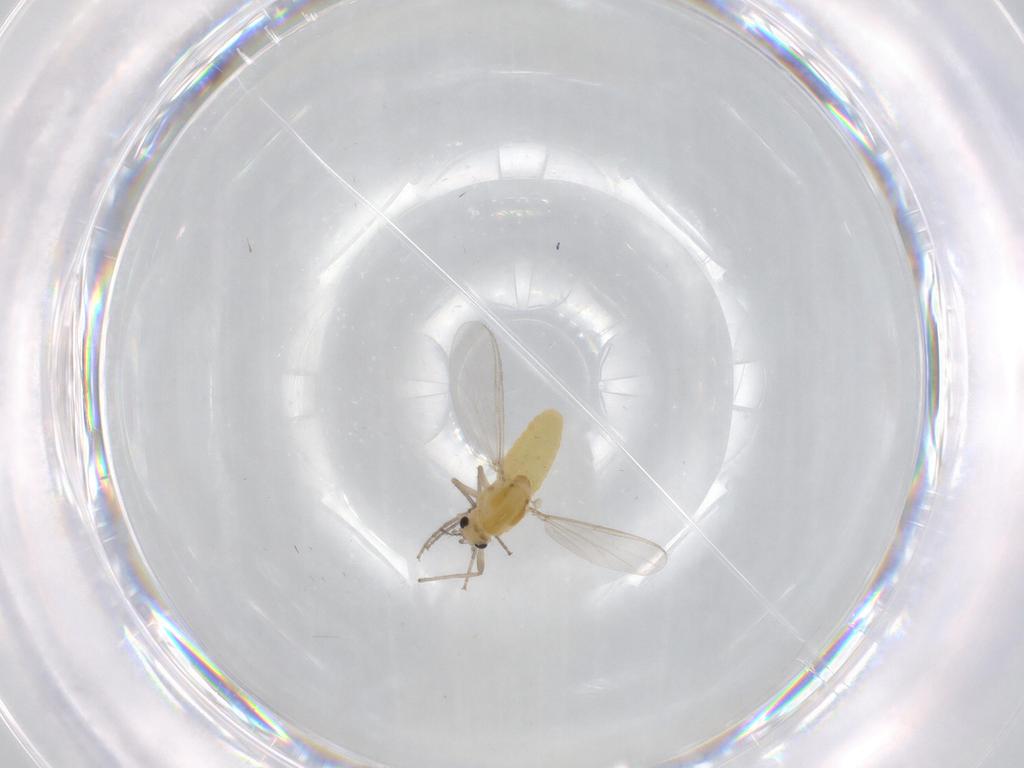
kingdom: Animalia
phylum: Arthropoda
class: Insecta
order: Diptera
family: Chironomidae
